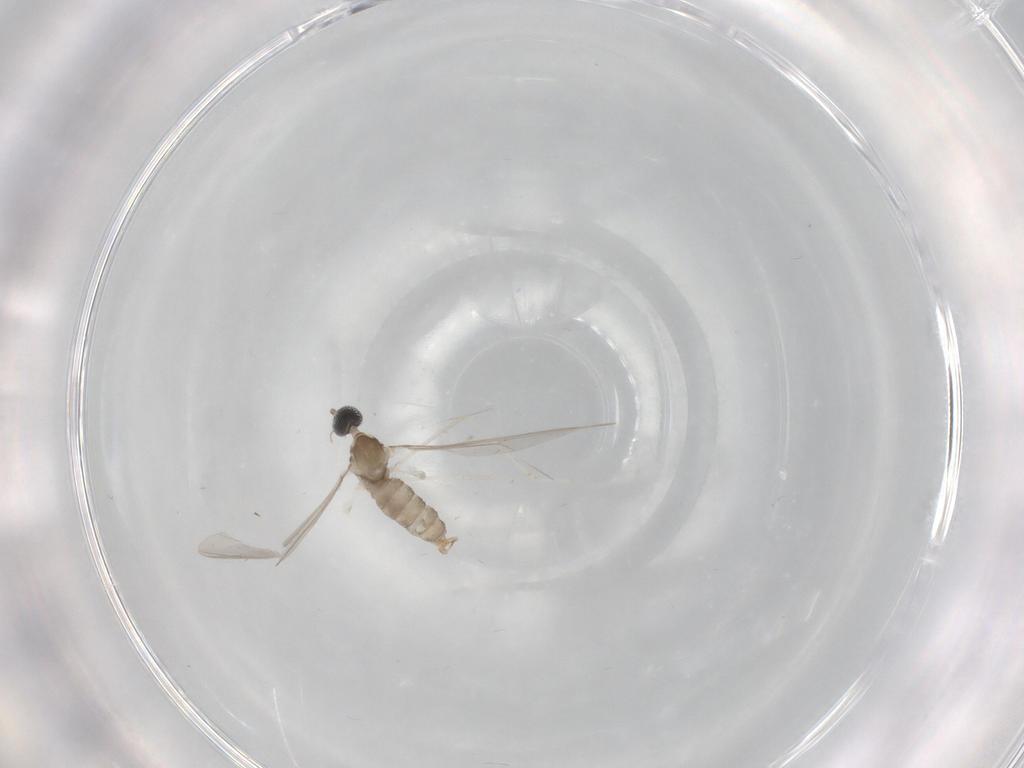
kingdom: Animalia
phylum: Arthropoda
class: Insecta
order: Diptera
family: Cecidomyiidae
